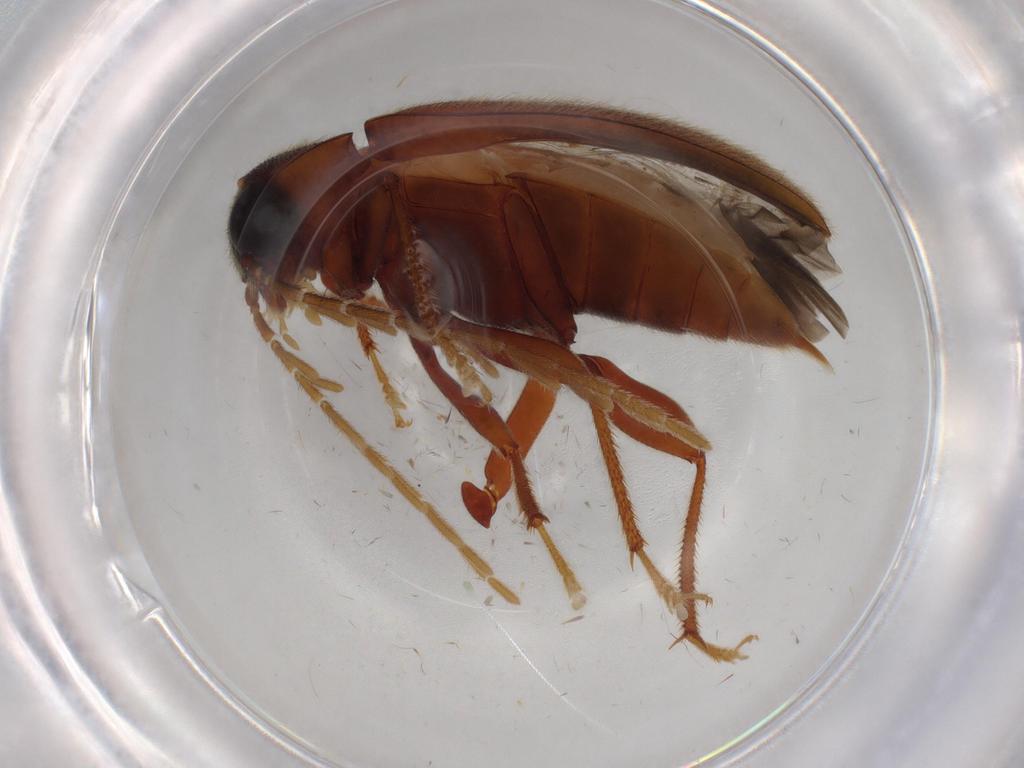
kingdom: Animalia
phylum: Arthropoda
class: Insecta
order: Coleoptera
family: Ptilodactylidae
